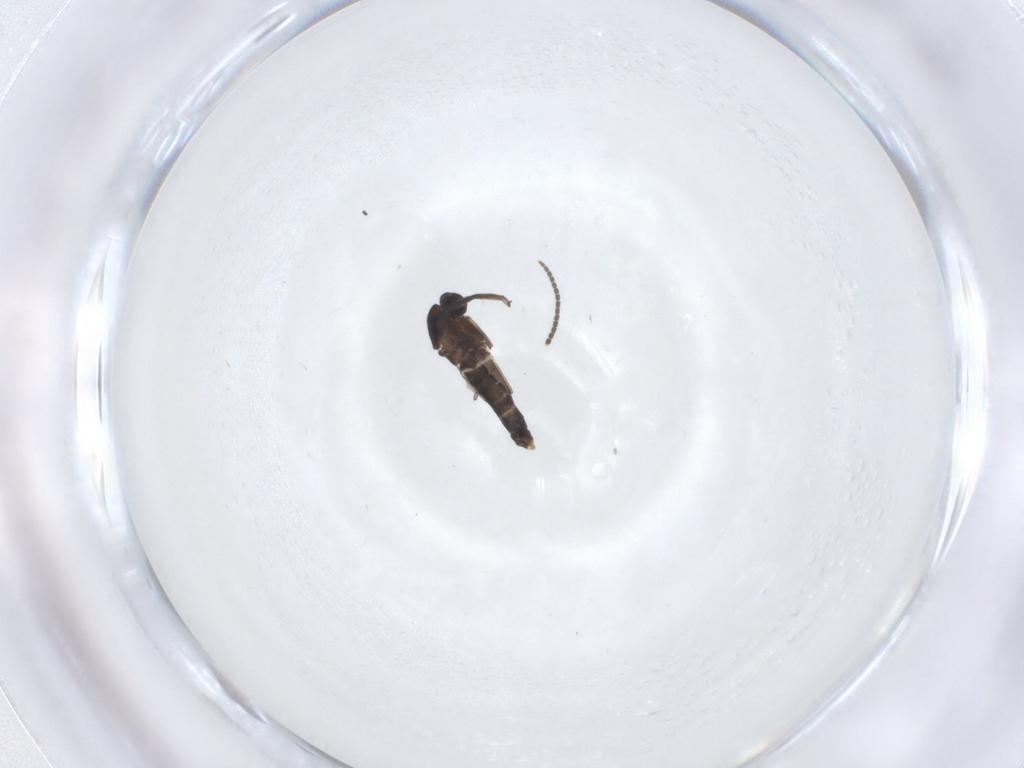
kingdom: Animalia
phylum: Arthropoda
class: Insecta
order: Diptera
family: Sciaridae
